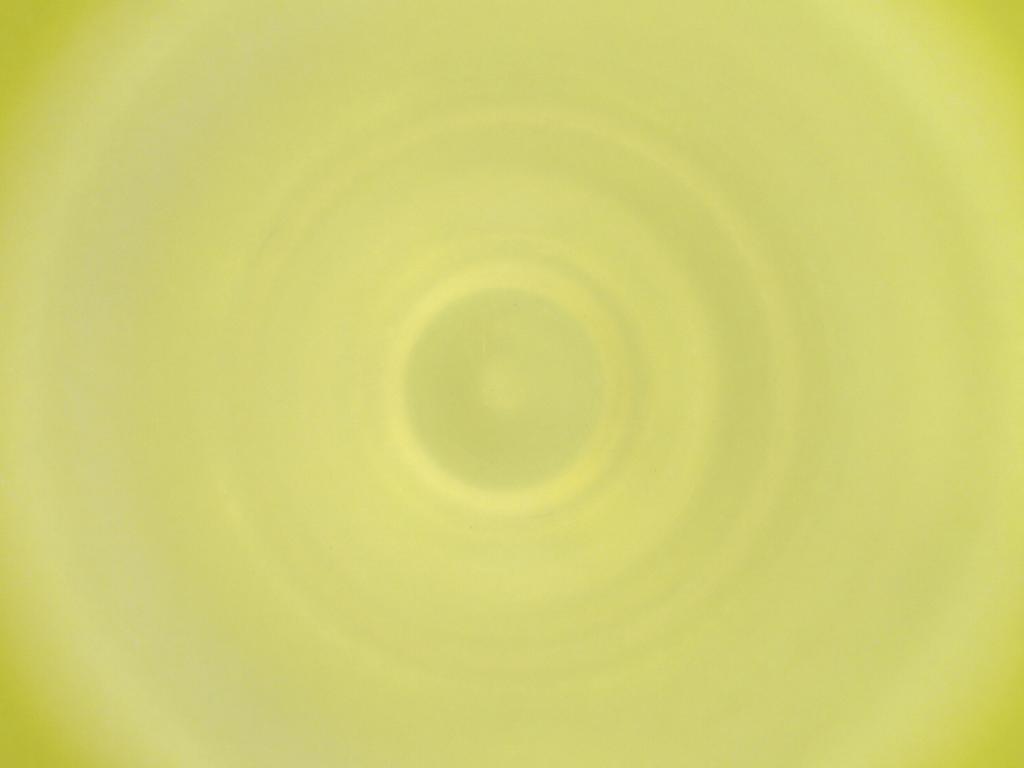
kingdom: Animalia
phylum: Arthropoda
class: Insecta
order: Diptera
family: Cecidomyiidae
